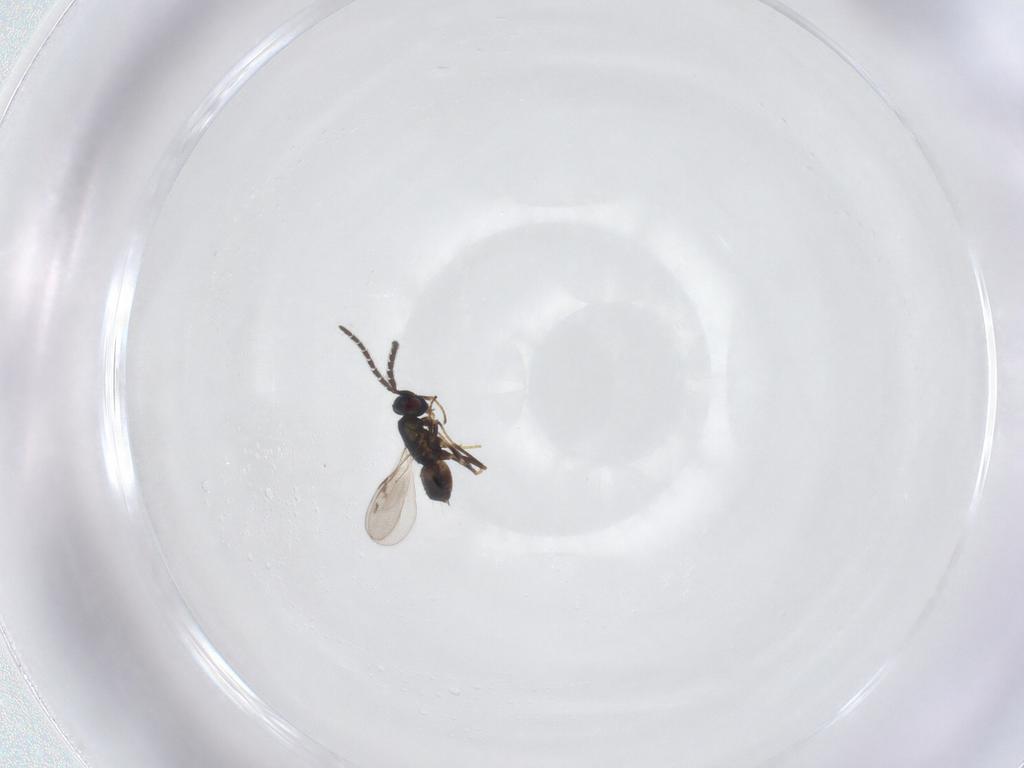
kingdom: Animalia
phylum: Arthropoda
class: Insecta
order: Hymenoptera
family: Encyrtidae
